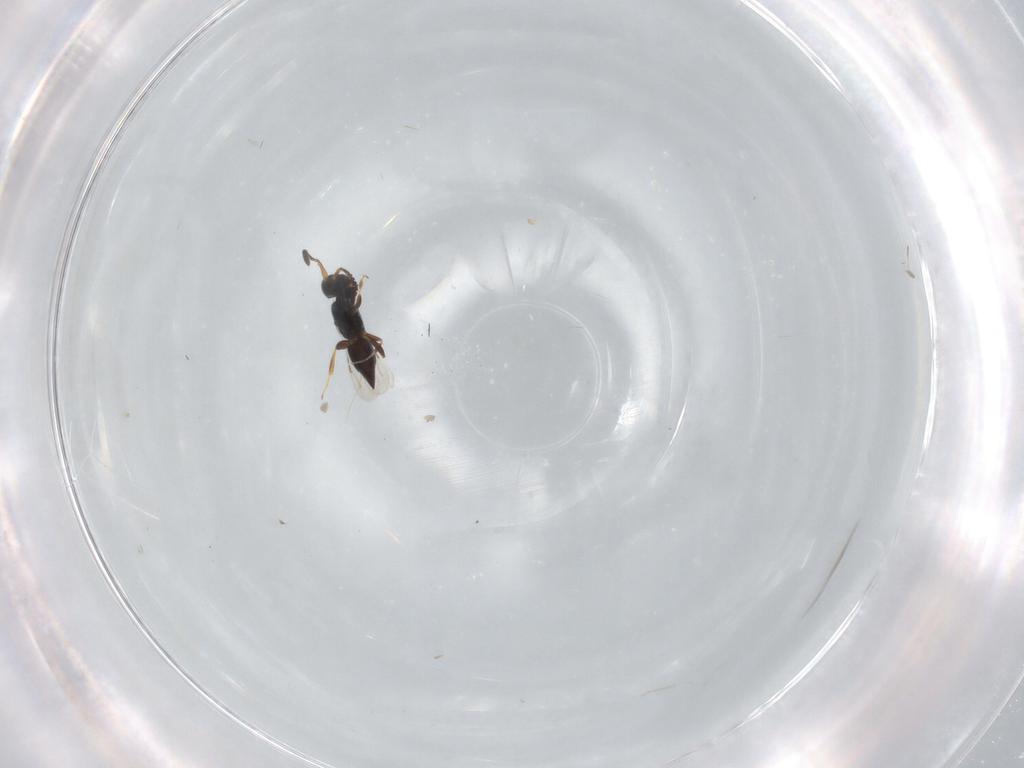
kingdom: Animalia
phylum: Arthropoda
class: Insecta
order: Hymenoptera
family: Scelionidae
